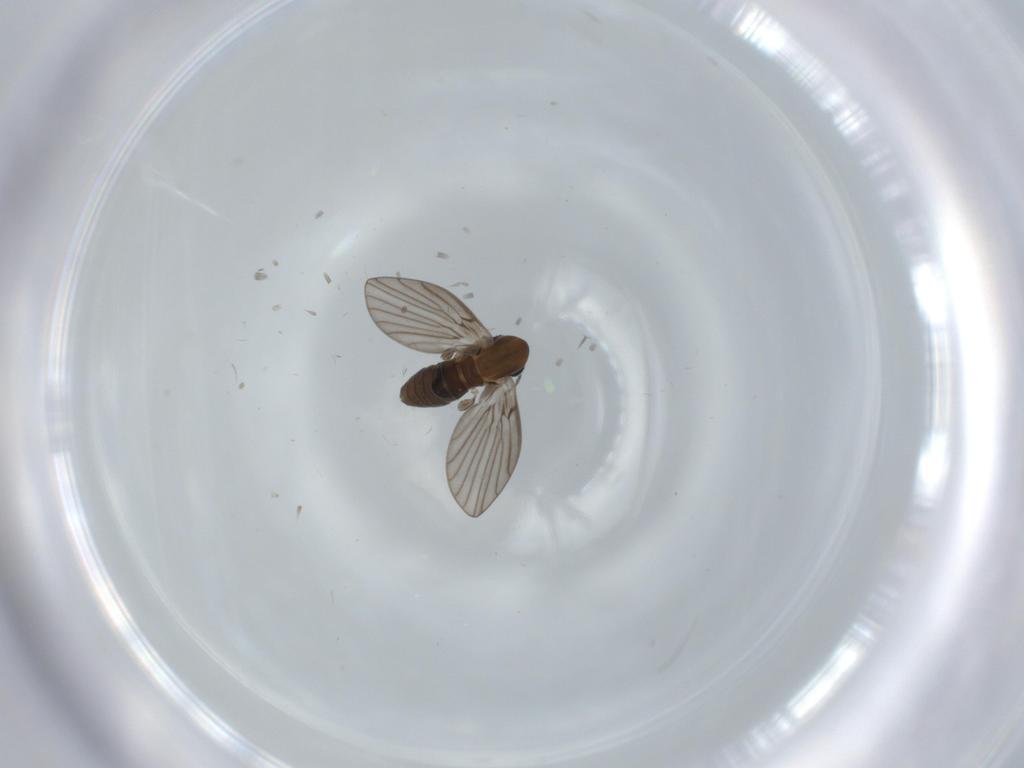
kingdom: Animalia
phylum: Arthropoda
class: Insecta
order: Diptera
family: Psychodidae
